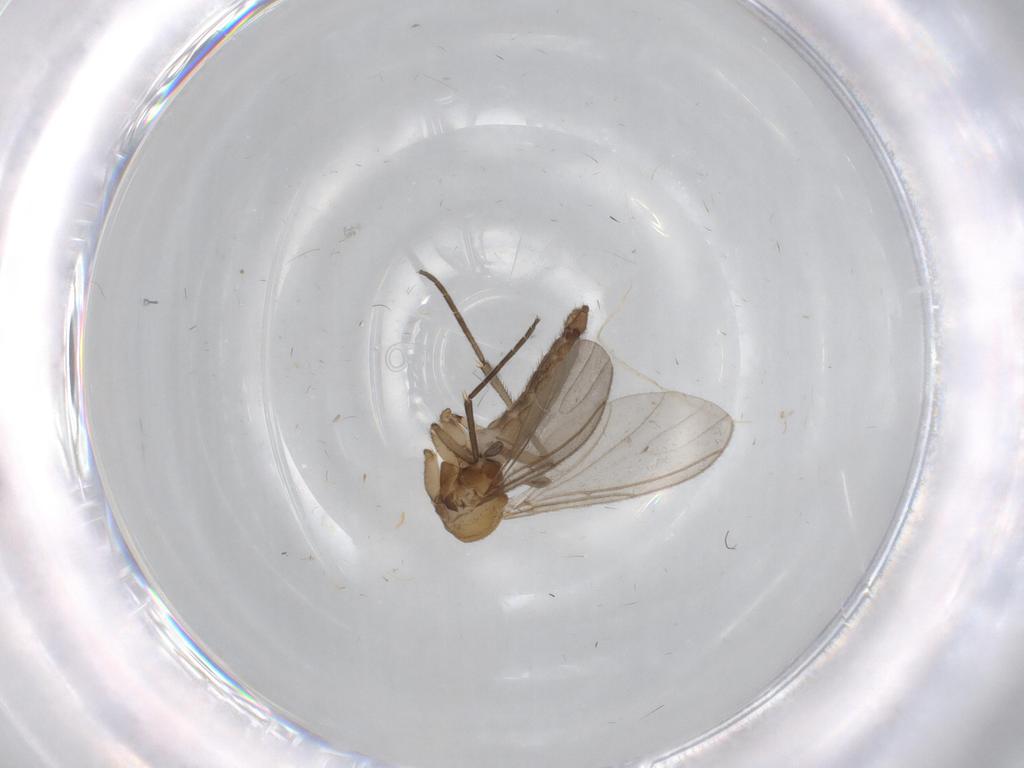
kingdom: Animalia
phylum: Arthropoda
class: Insecta
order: Diptera
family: Sciaridae
